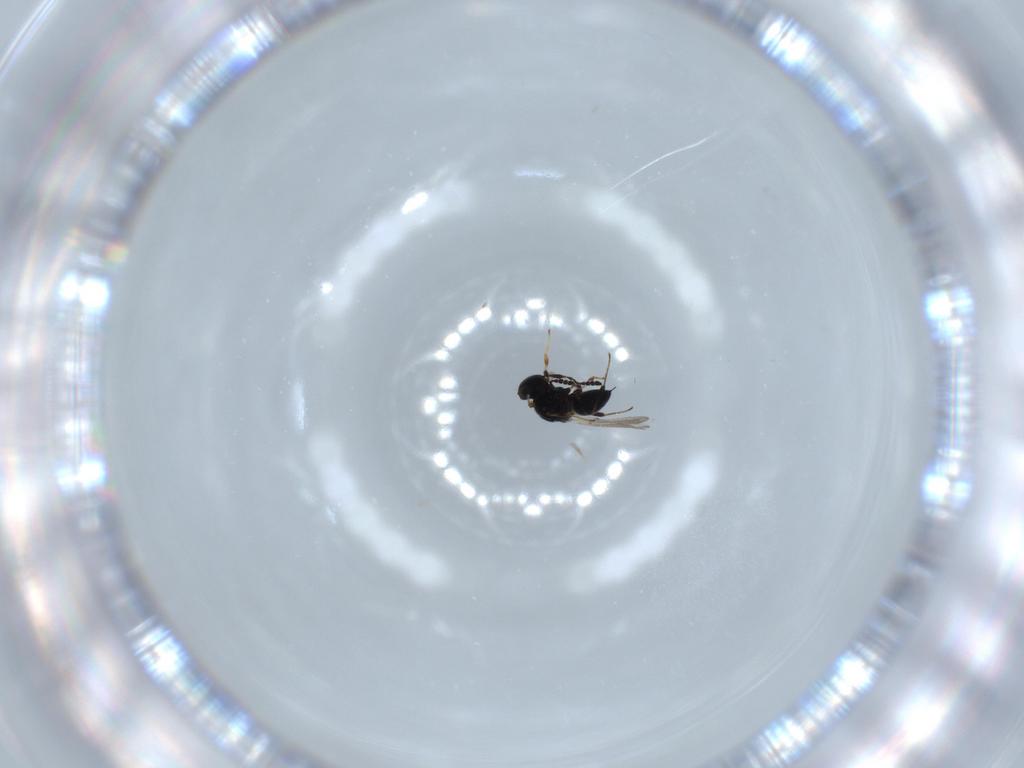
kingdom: Animalia
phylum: Arthropoda
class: Insecta
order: Hymenoptera
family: Platygastridae
